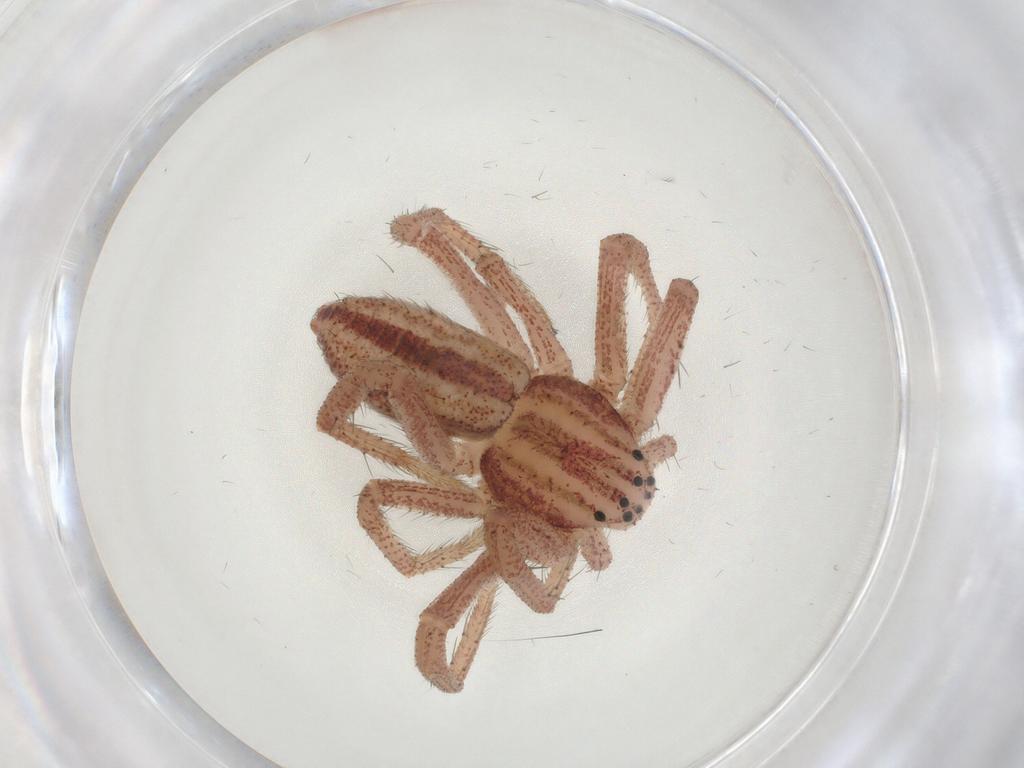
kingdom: Animalia
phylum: Arthropoda
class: Arachnida
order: Araneae
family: Philodromidae
